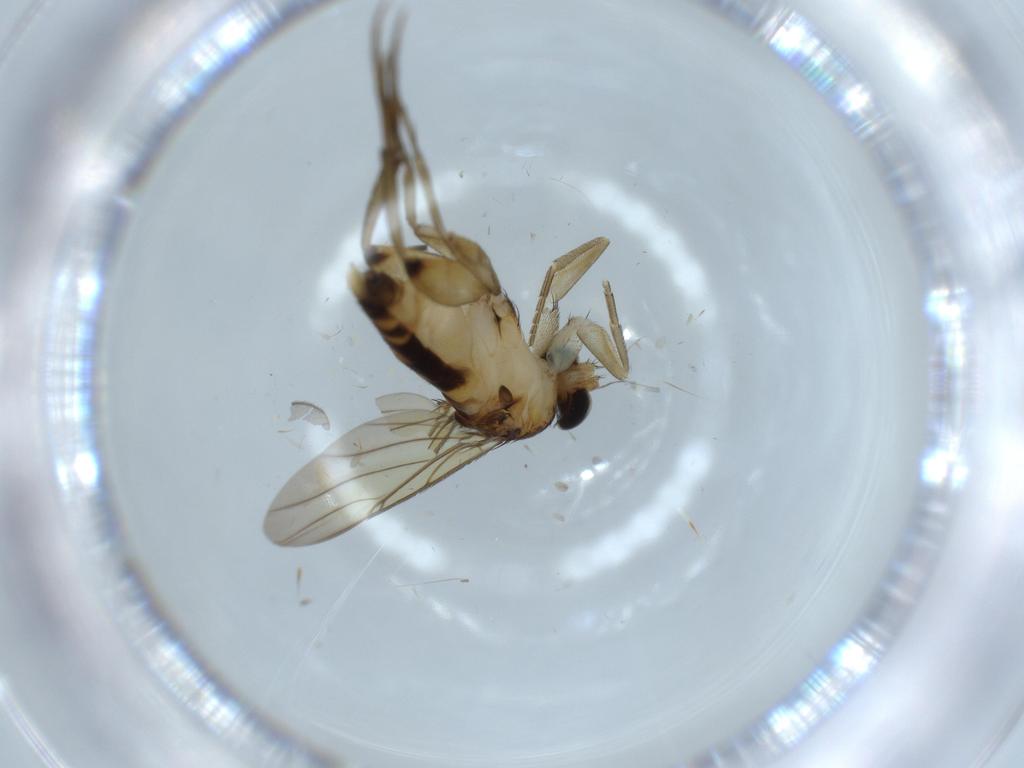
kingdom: Animalia
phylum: Arthropoda
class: Insecta
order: Diptera
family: Phoridae
